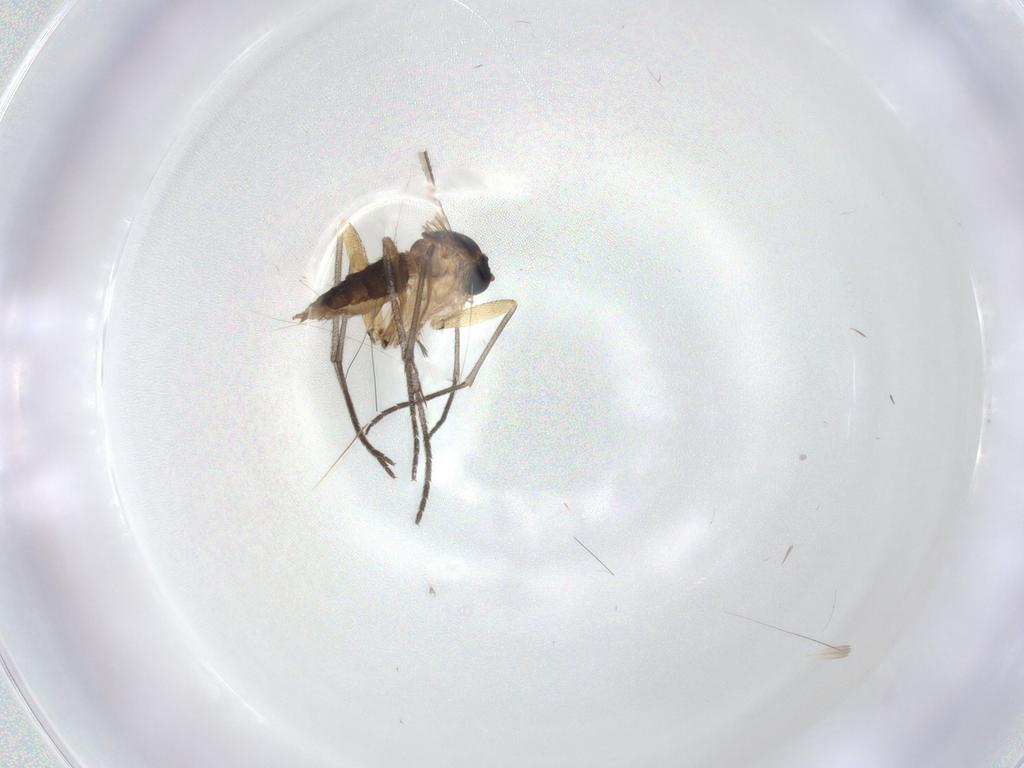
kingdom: Animalia
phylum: Arthropoda
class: Insecta
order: Diptera
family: Sciaridae
